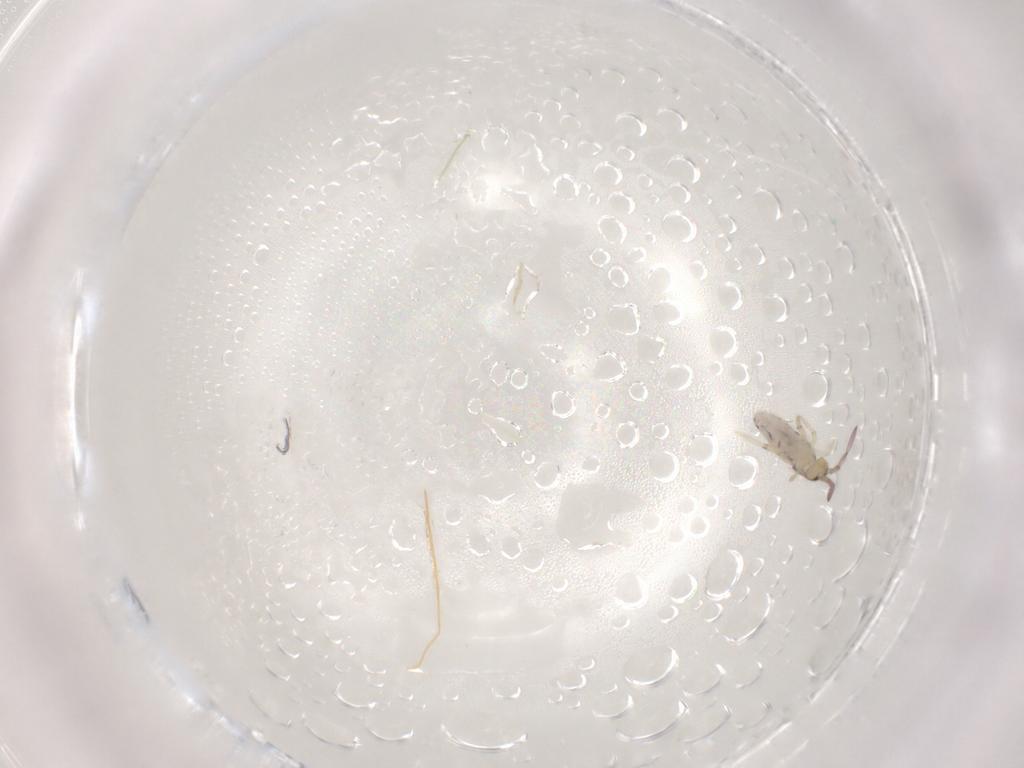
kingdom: Animalia
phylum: Arthropoda
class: Collembola
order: Entomobryomorpha
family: Entomobryidae
